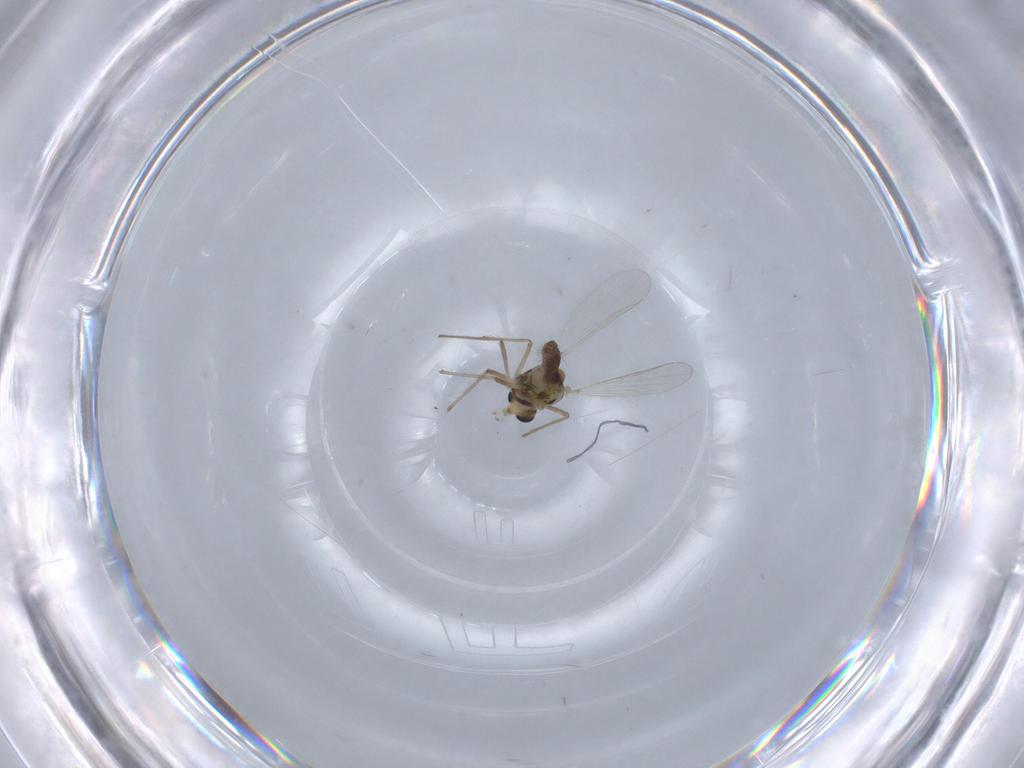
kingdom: Animalia
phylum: Arthropoda
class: Insecta
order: Diptera
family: Chironomidae
